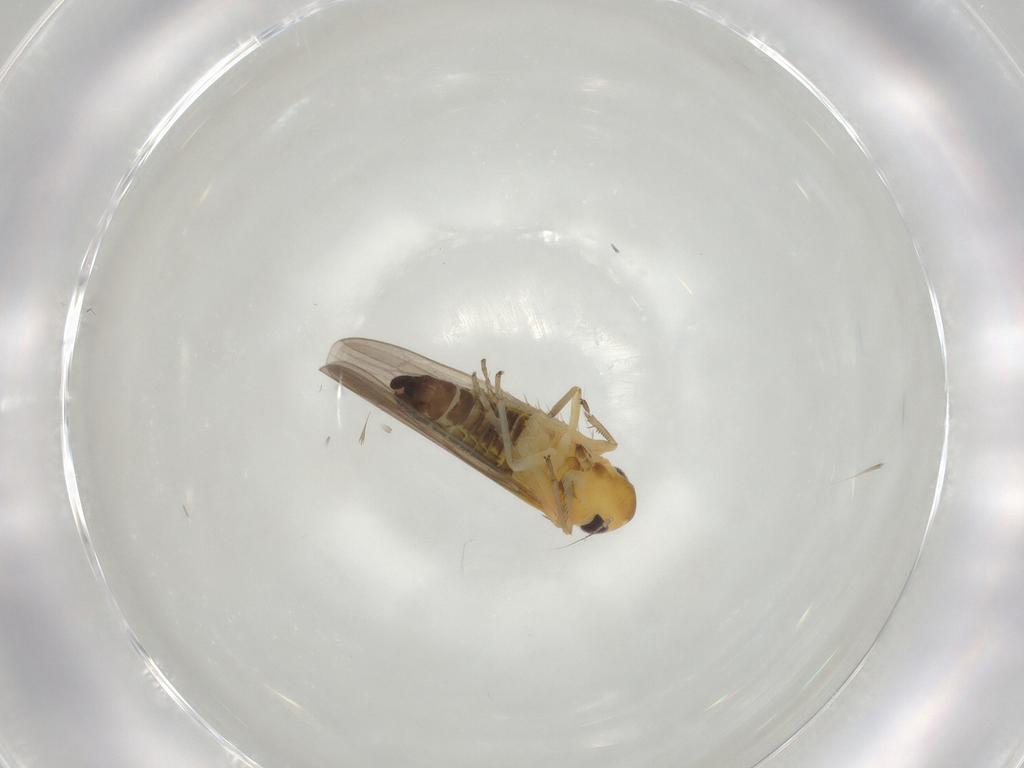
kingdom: Animalia
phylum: Arthropoda
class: Insecta
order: Hemiptera
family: Cicadellidae
